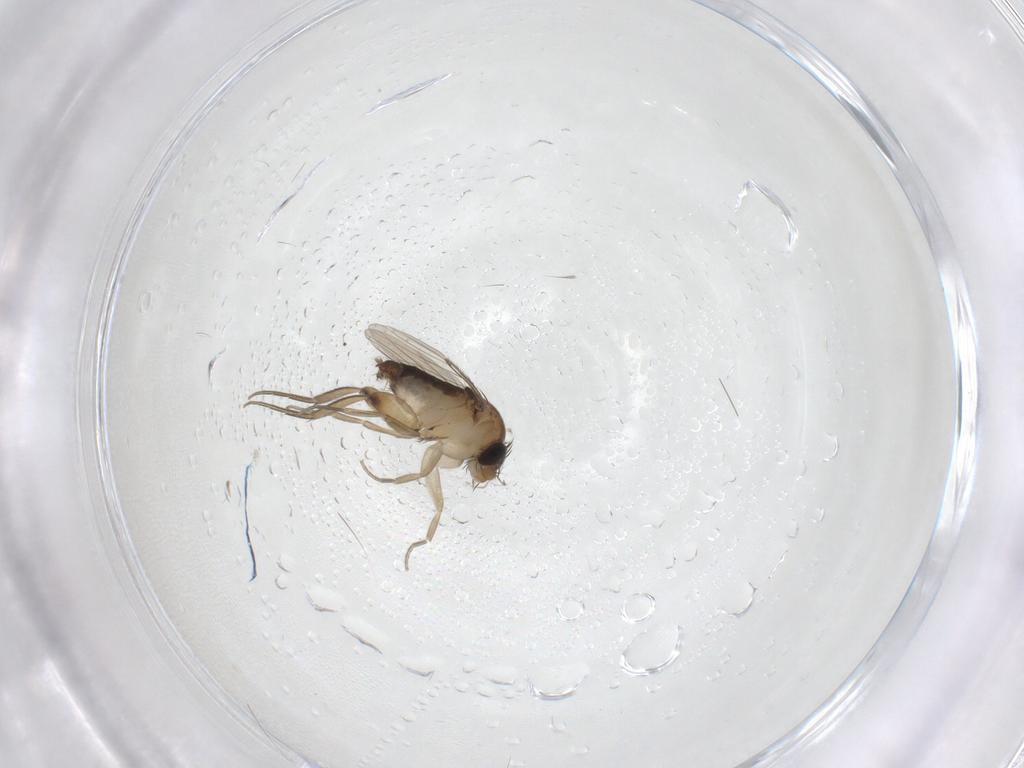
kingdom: Animalia
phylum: Arthropoda
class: Insecta
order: Diptera
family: Phoridae
